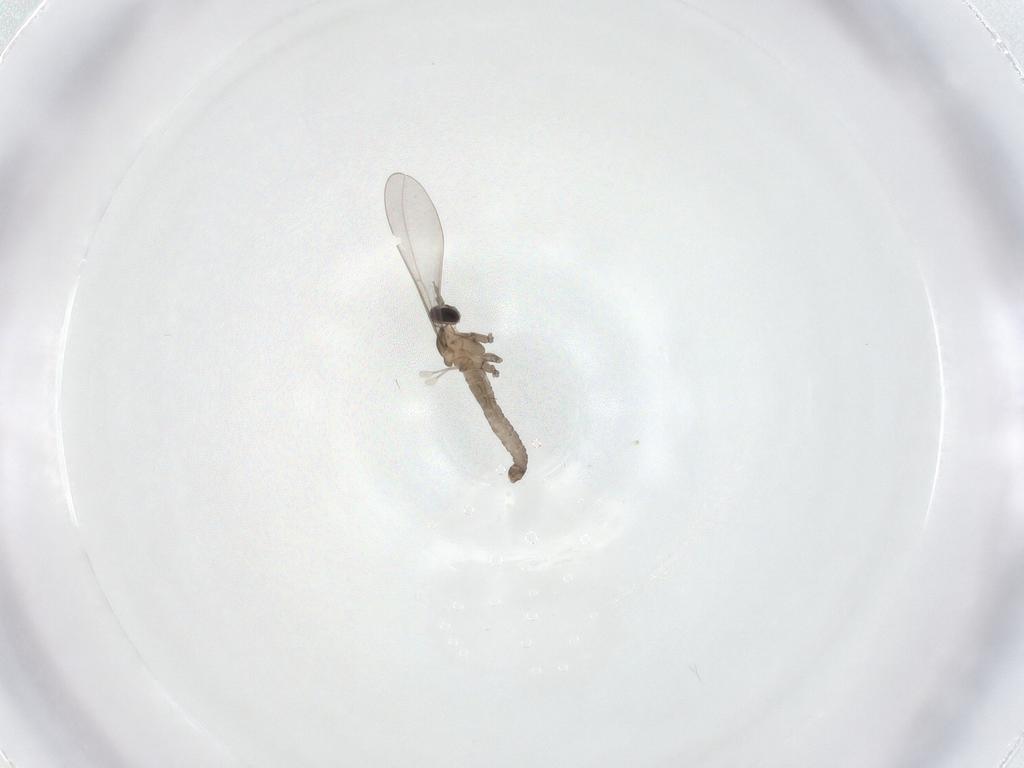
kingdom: Animalia
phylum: Arthropoda
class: Insecta
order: Diptera
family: Cecidomyiidae
